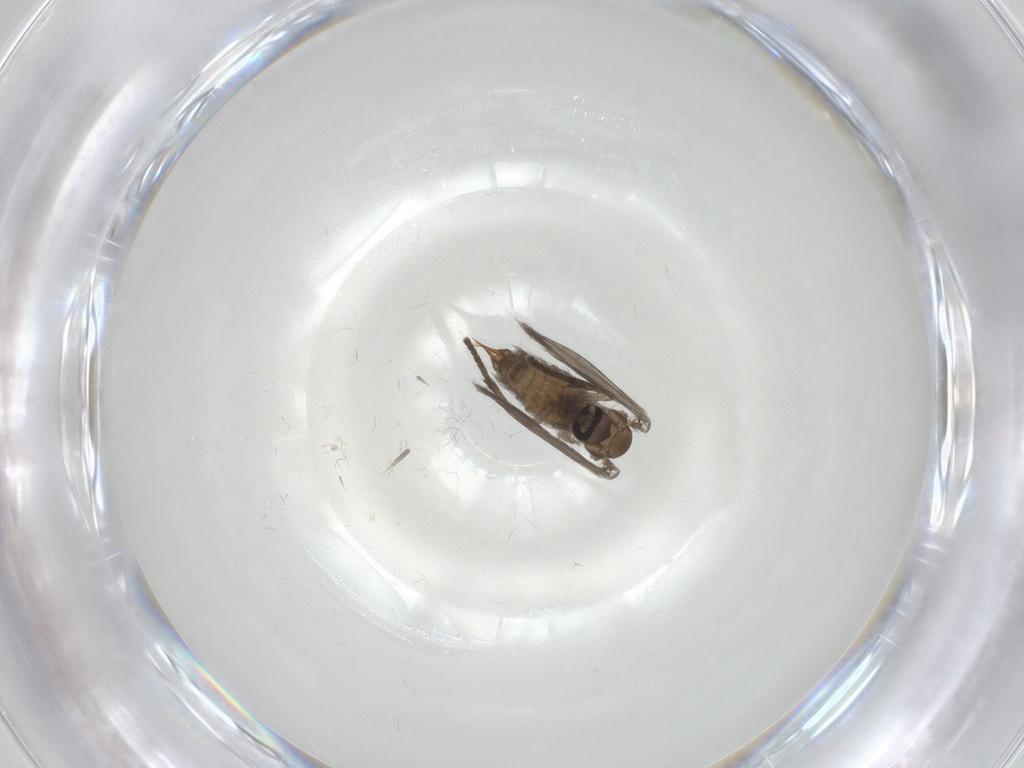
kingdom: Animalia
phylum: Arthropoda
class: Insecta
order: Diptera
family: Psychodidae
